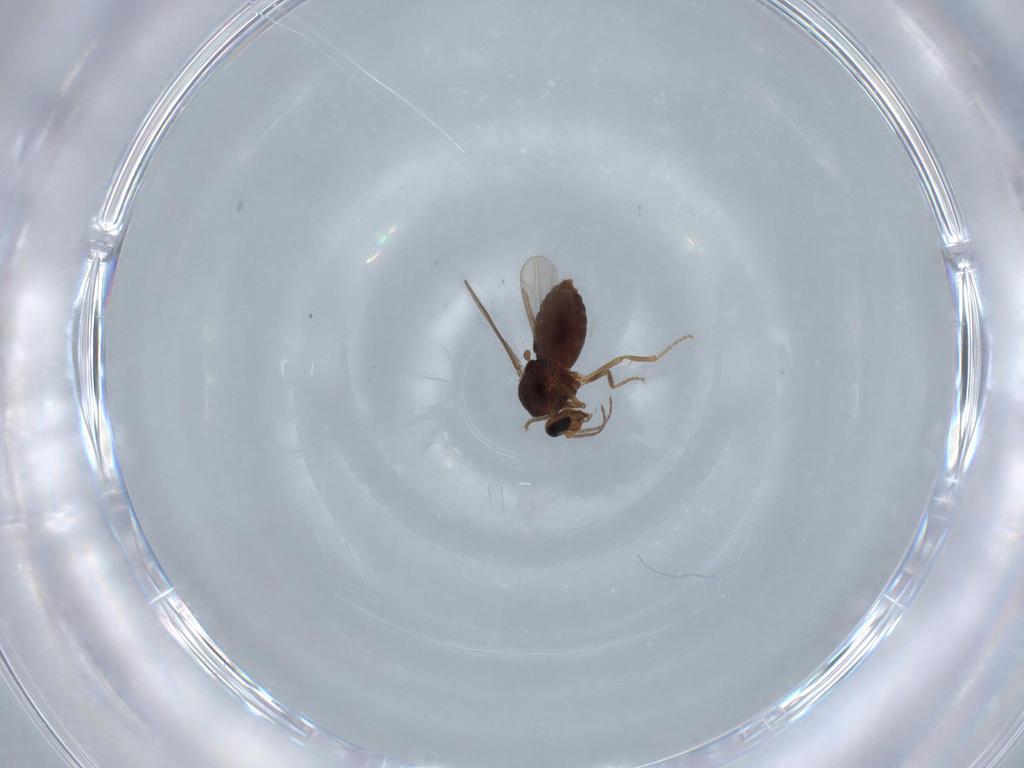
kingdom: Animalia
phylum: Arthropoda
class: Insecta
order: Diptera
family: Ceratopogonidae
